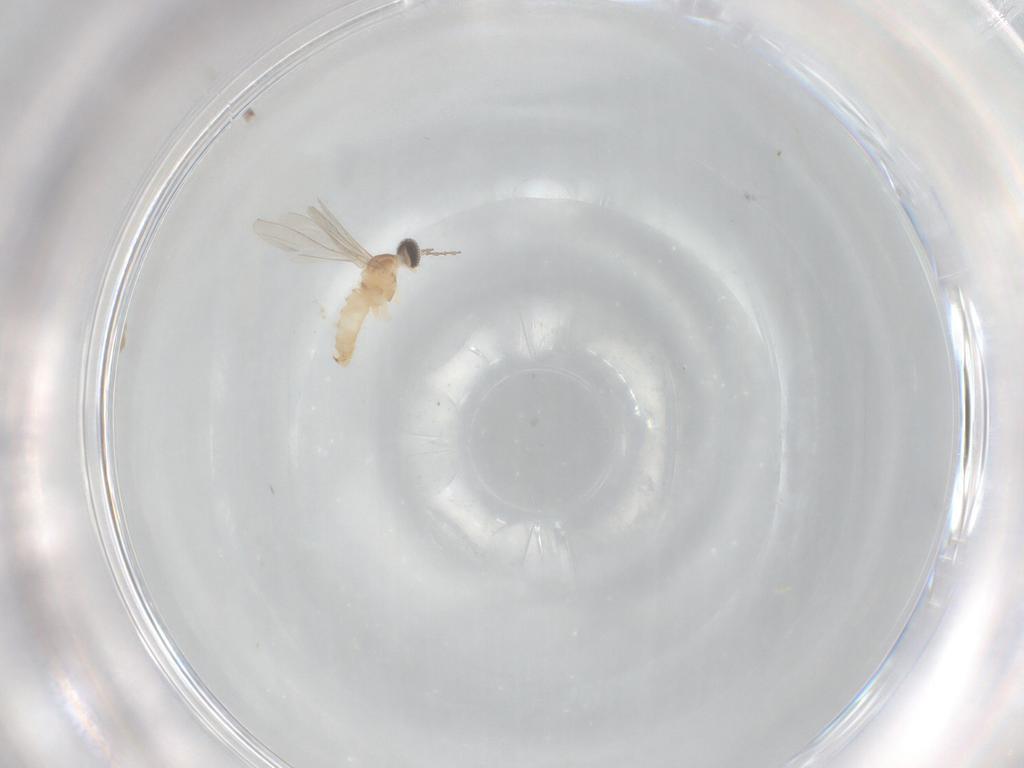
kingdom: Animalia
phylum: Arthropoda
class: Insecta
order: Diptera
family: Cecidomyiidae
